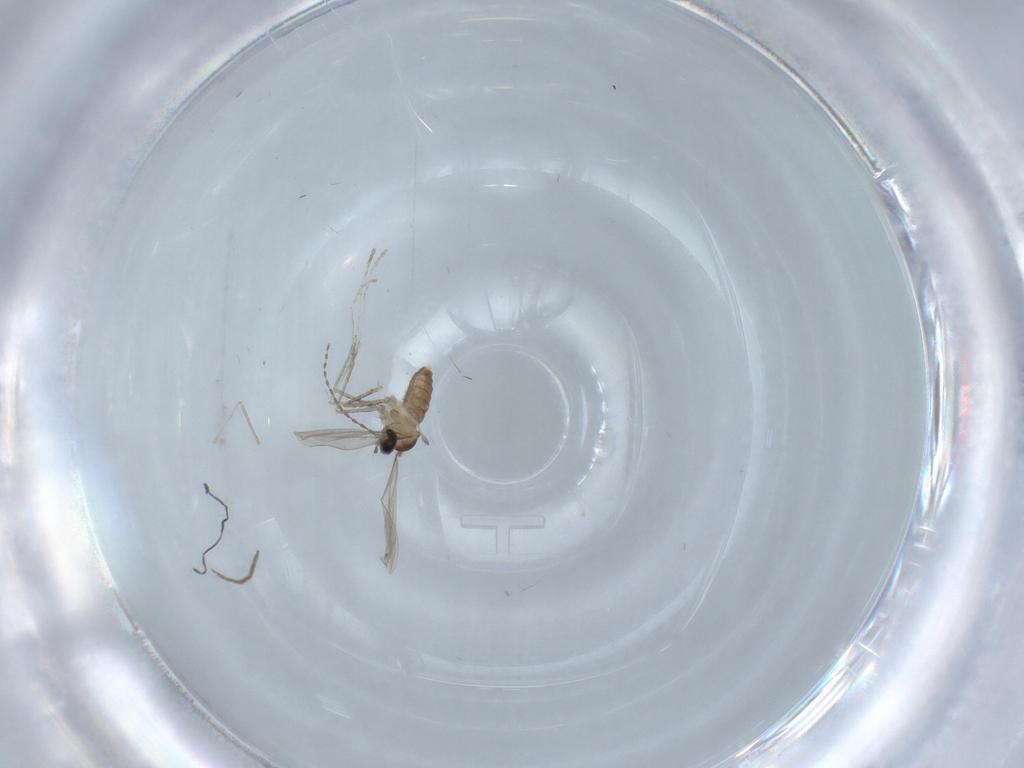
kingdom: Animalia
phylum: Arthropoda
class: Insecta
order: Diptera
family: Cecidomyiidae
